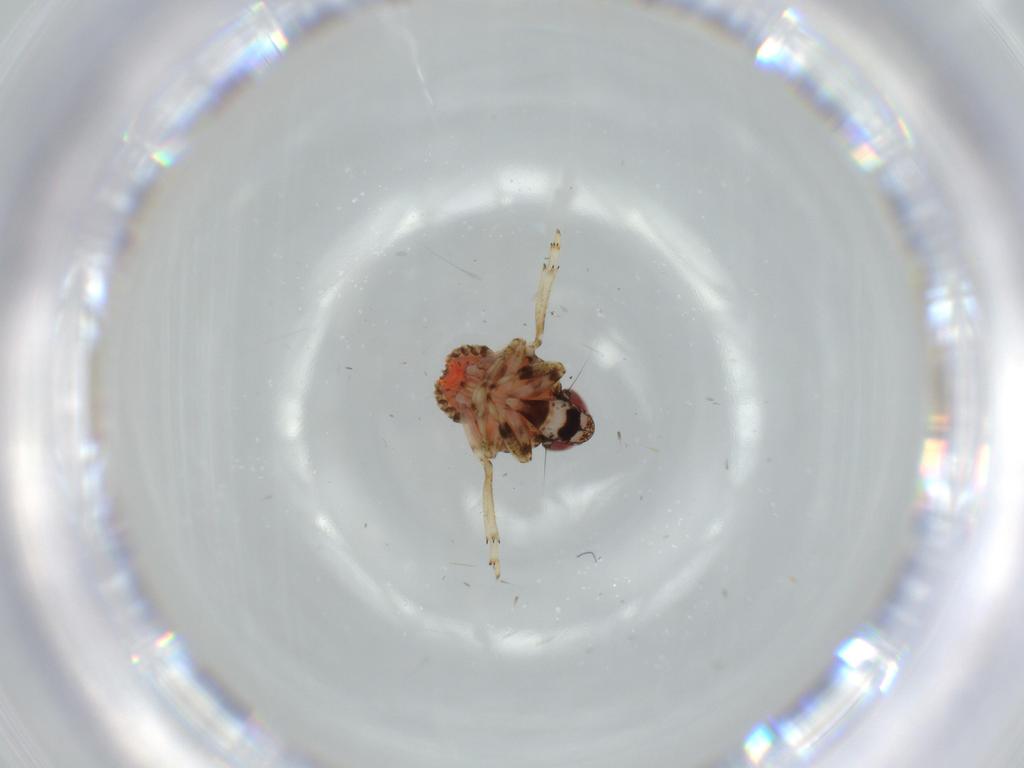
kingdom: Animalia
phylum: Arthropoda
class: Insecta
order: Hemiptera
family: Issidae
